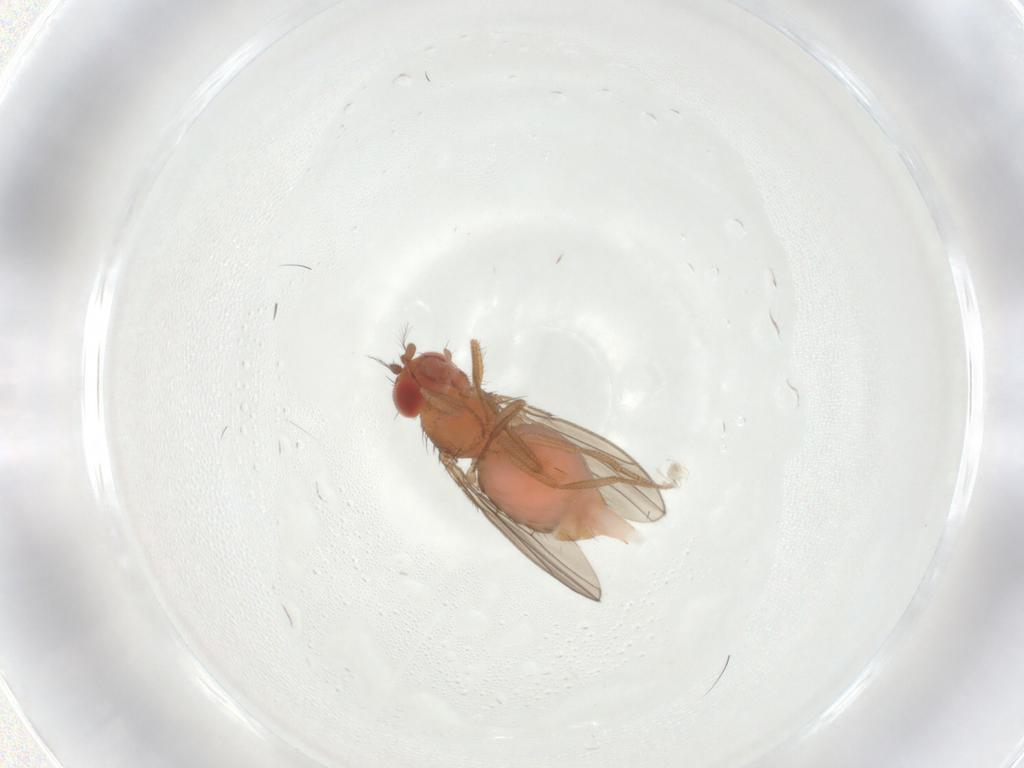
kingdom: Animalia
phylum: Arthropoda
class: Insecta
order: Diptera
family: Drosophilidae
